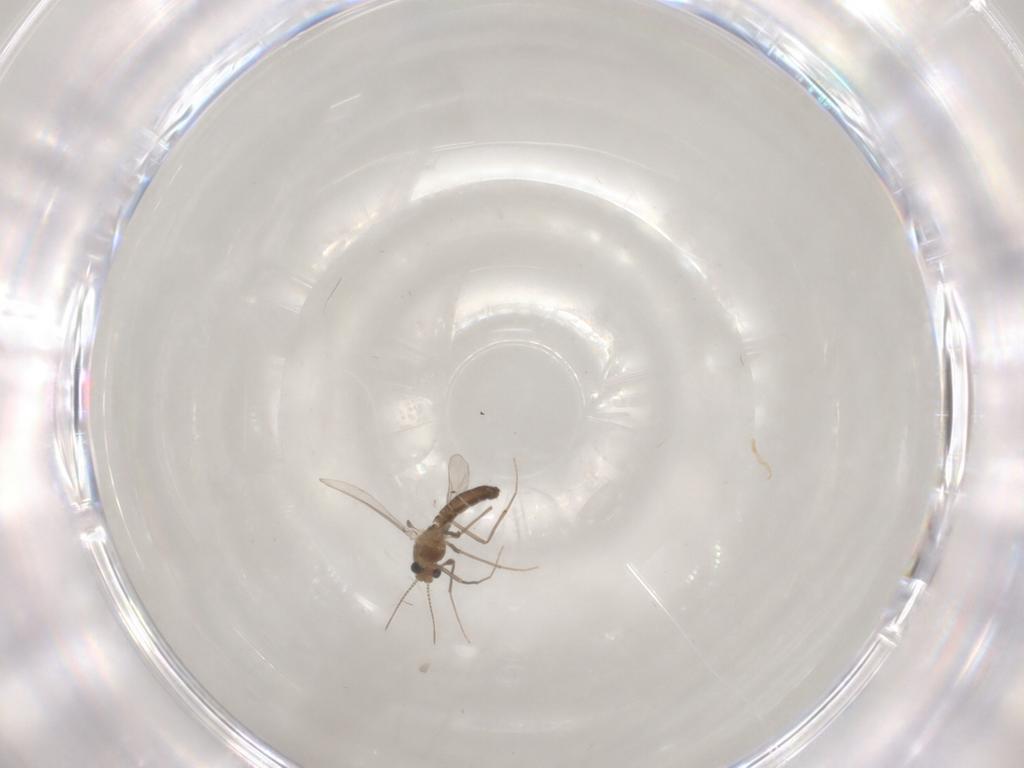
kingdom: Animalia
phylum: Arthropoda
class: Insecta
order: Diptera
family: Chironomidae
